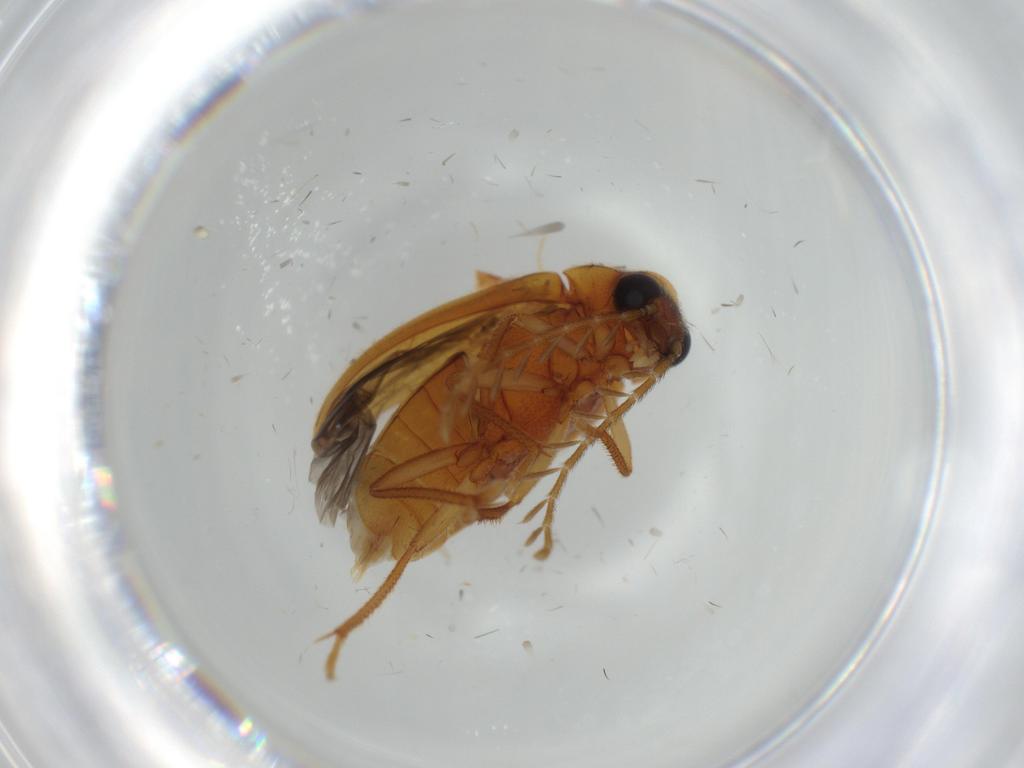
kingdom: Animalia
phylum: Arthropoda
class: Insecta
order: Coleoptera
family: Ptilodactylidae
